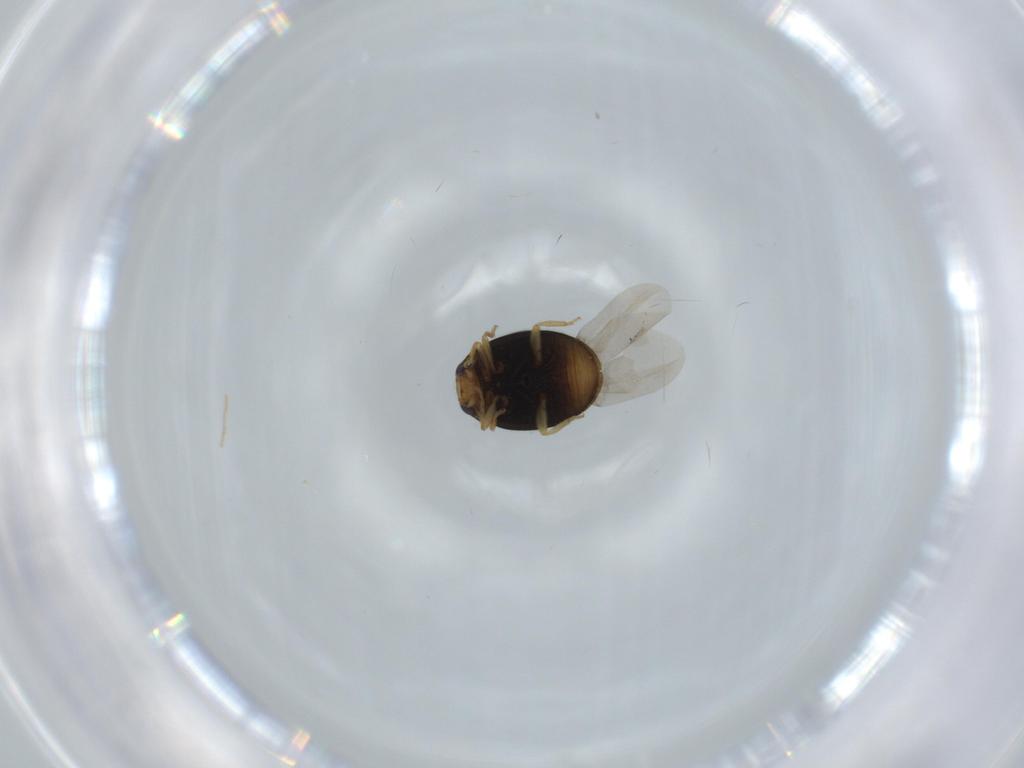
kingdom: Animalia
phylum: Arthropoda
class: Insecta
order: Coleoptera
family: Coccinellidae
